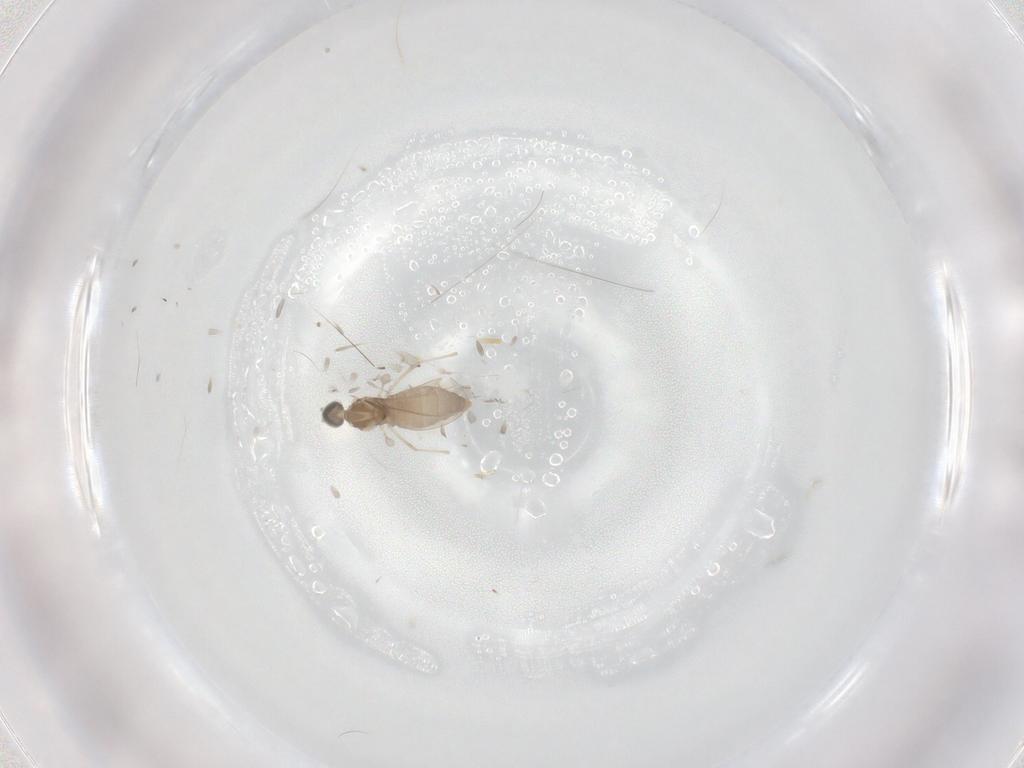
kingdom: Animalia
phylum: Arthropoda
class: Insecta
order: Diptera
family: Cecidomyiidae
